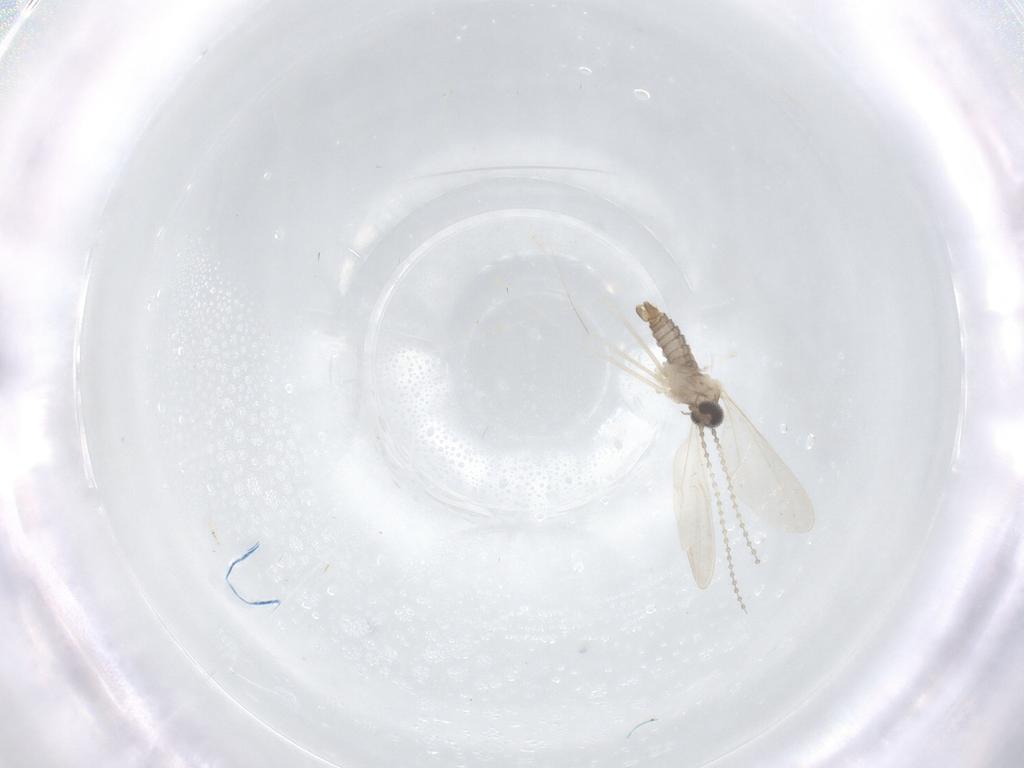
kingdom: Animalia
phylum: Arthropoda
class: Insecta
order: Diptera
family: Cecidomyiidae
